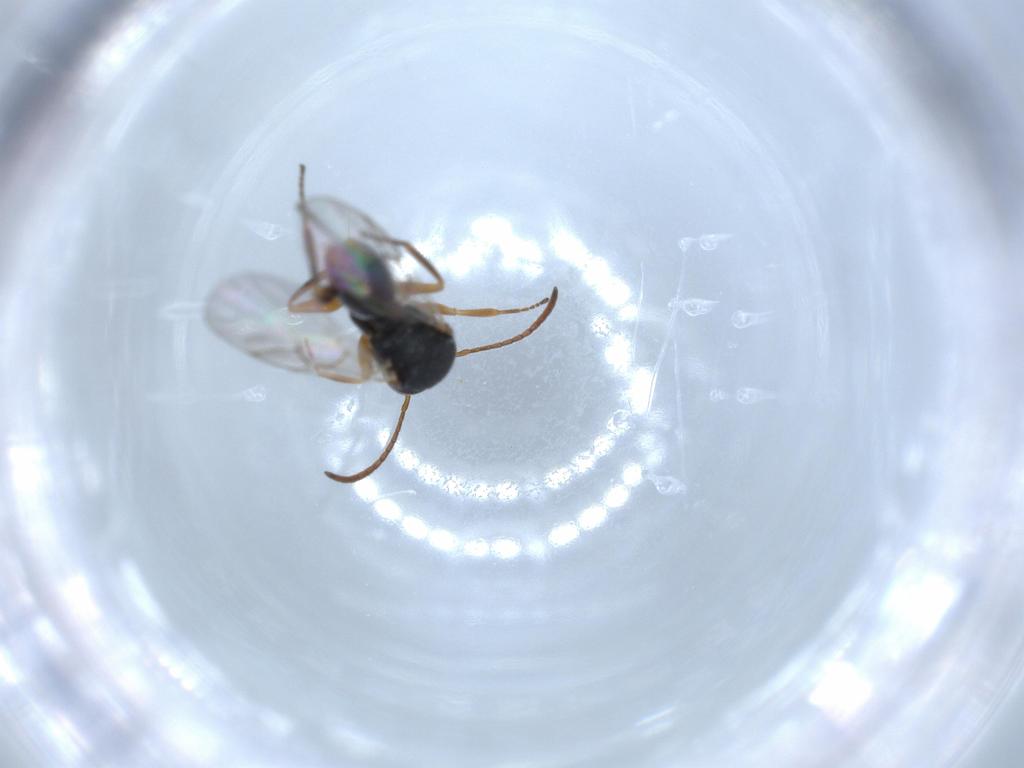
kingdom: Animalia
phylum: Arthropoda
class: Insecta
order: Hymenoptera
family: Cynipidae
